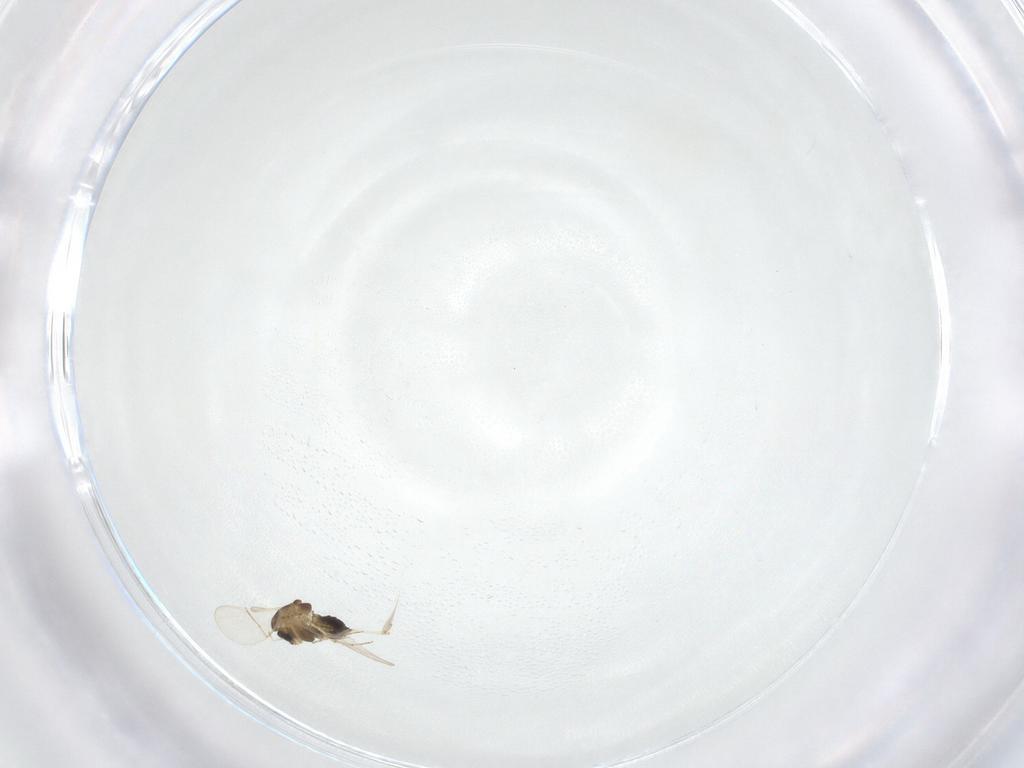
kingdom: Animalia
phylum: Arthropoda
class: Insecta
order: Diptera
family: Chironomidae
